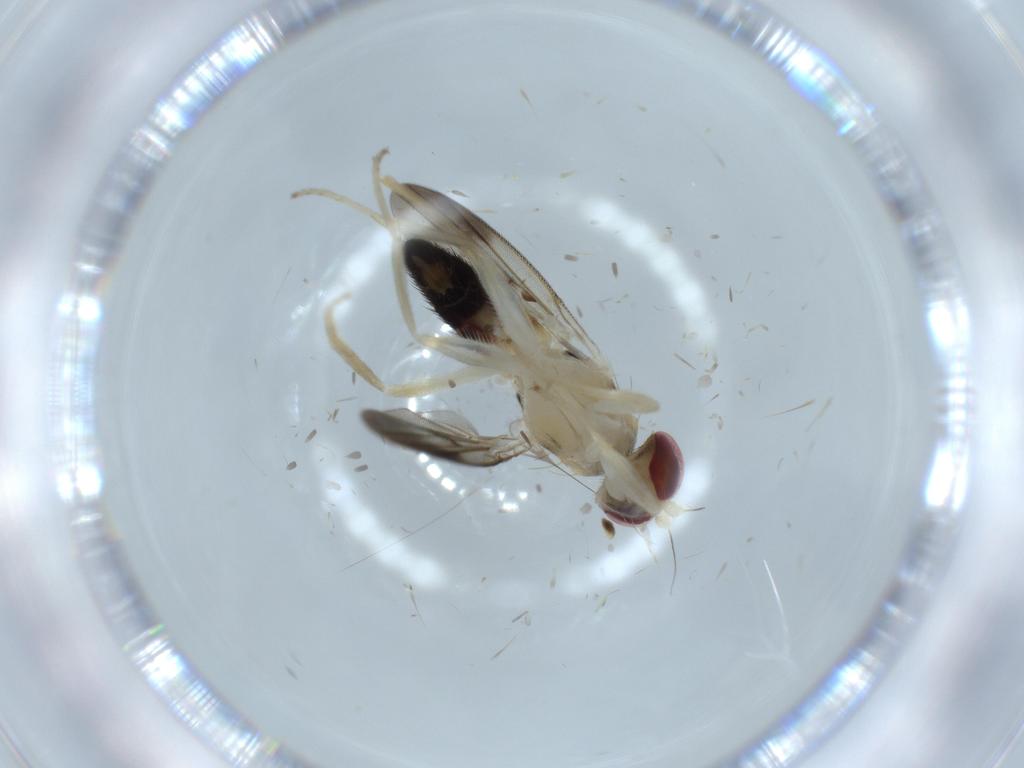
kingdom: Animalia
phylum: Arthropoda
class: Insecta
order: Diptera
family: Clusiidae
